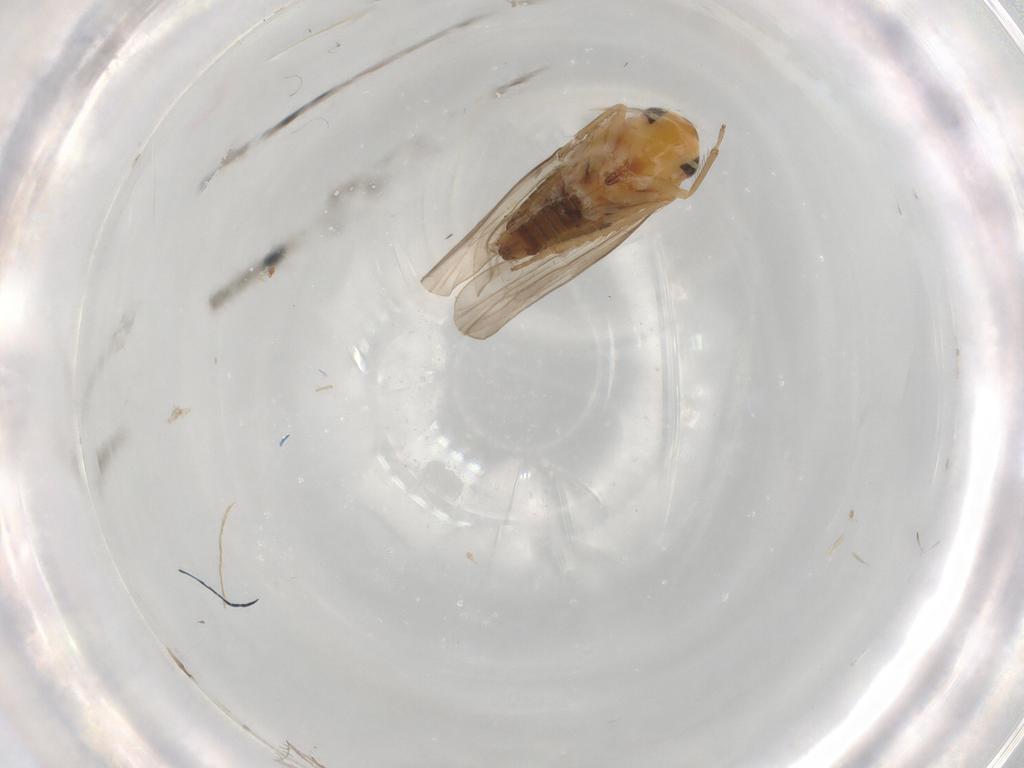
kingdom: Animalia
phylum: Arthropoda
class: Insecta
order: Hemiptera
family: Cicadellidae
